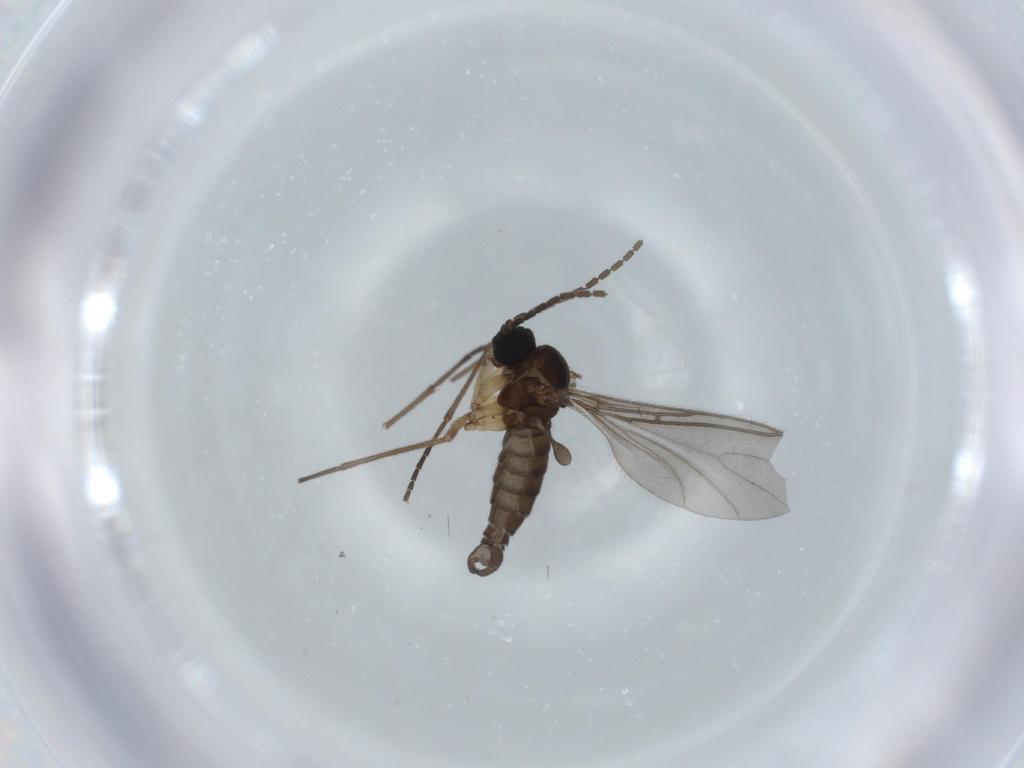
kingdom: Animalia
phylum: Arthropoda
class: Insecta
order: Diptera
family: Sciaridae
